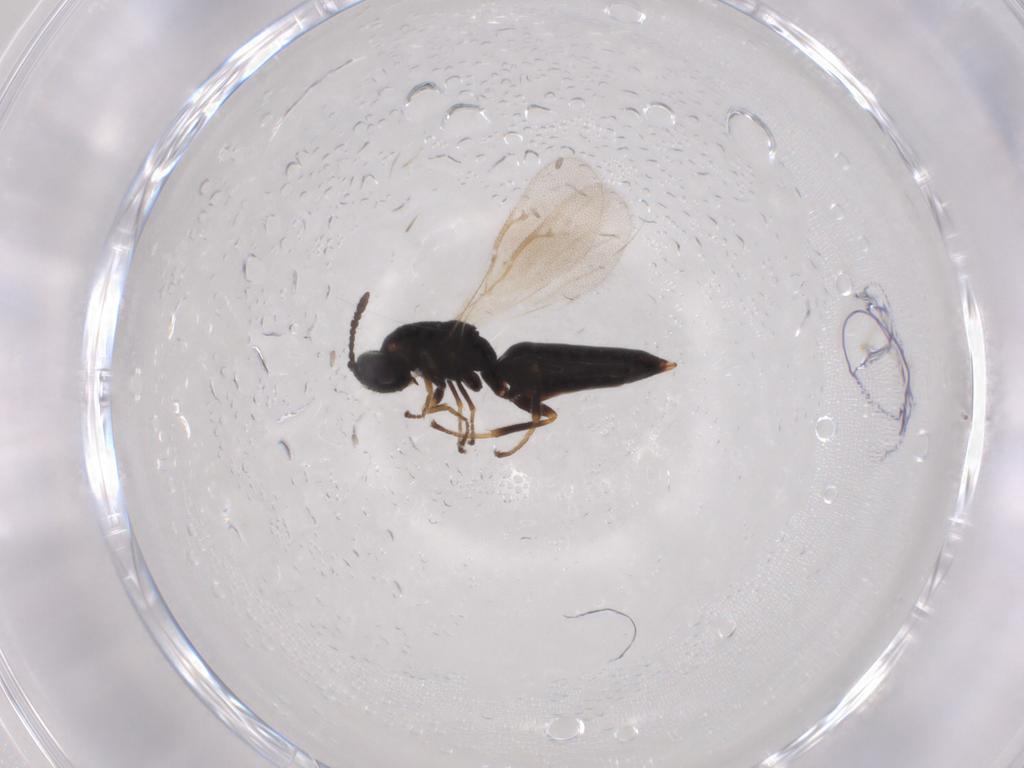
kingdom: Animalia
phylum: Arthropoda
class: Insecta
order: Hymenoptera
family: Eurytomidae
